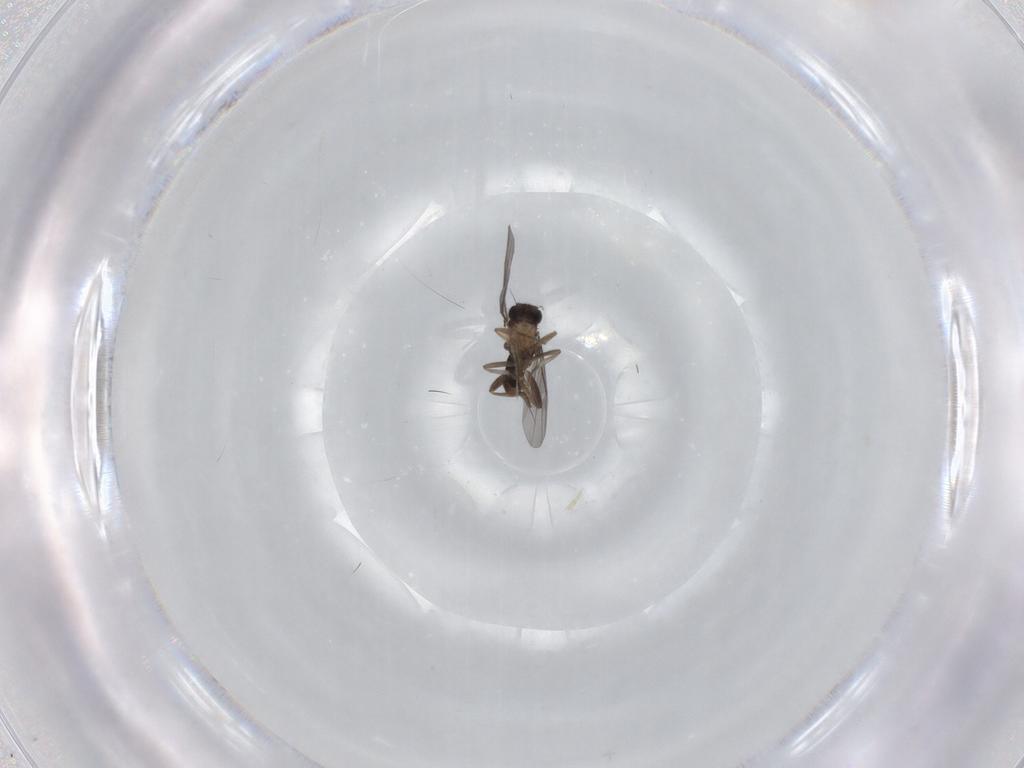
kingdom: Animalia
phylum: Arthropoda
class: Insecta
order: Diptera
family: Cecidomyiidae
